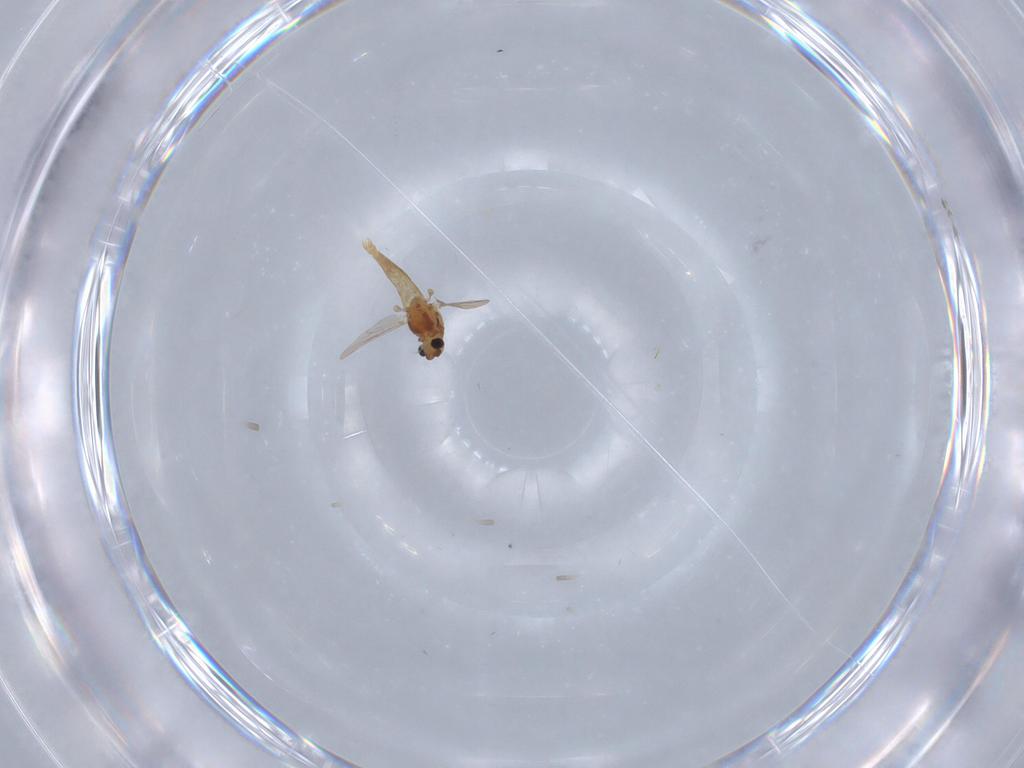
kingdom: Animalia
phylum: Arthropoda
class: Insecta
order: Diptera
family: Chironomidae
